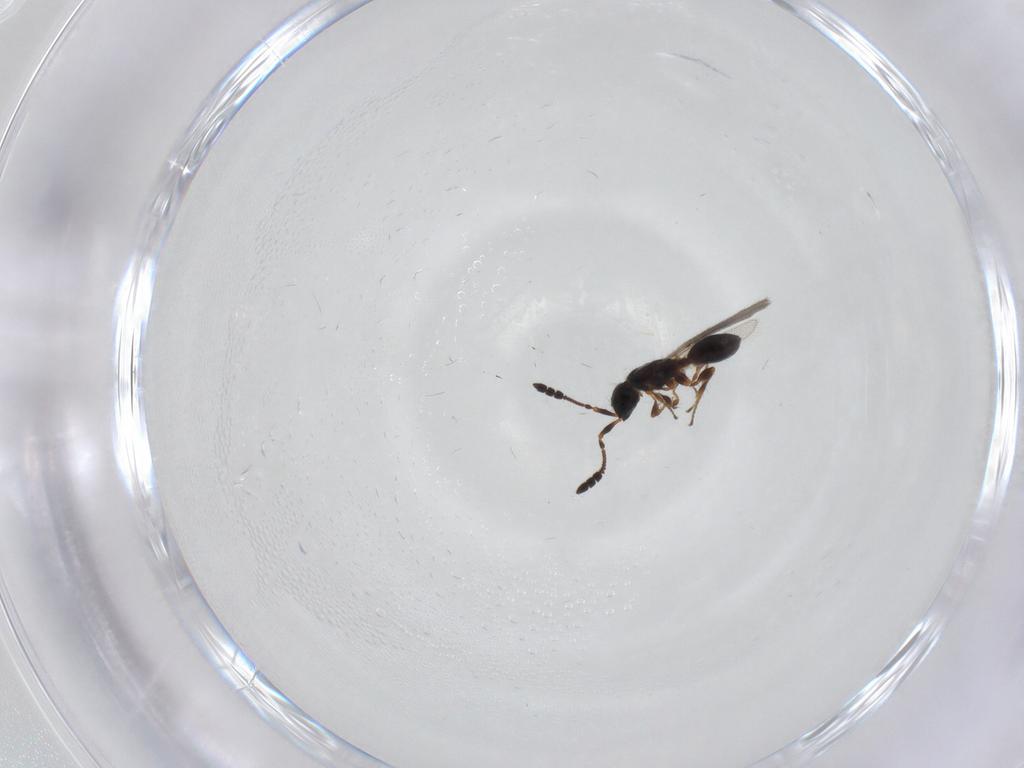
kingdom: Animalia
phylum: Arthropoda
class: Insecta
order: Hymenoptera
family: Diapriidae
